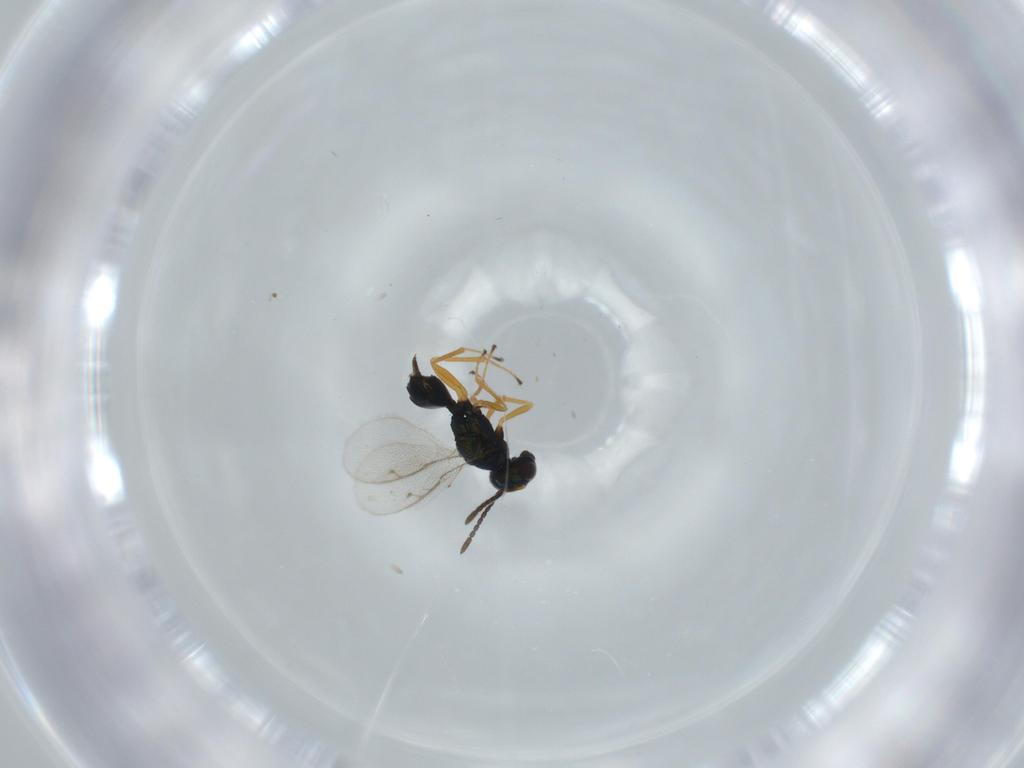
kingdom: Animalia
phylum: Arthropoda
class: Insecta
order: Hymenoptera
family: Pteromalidae
